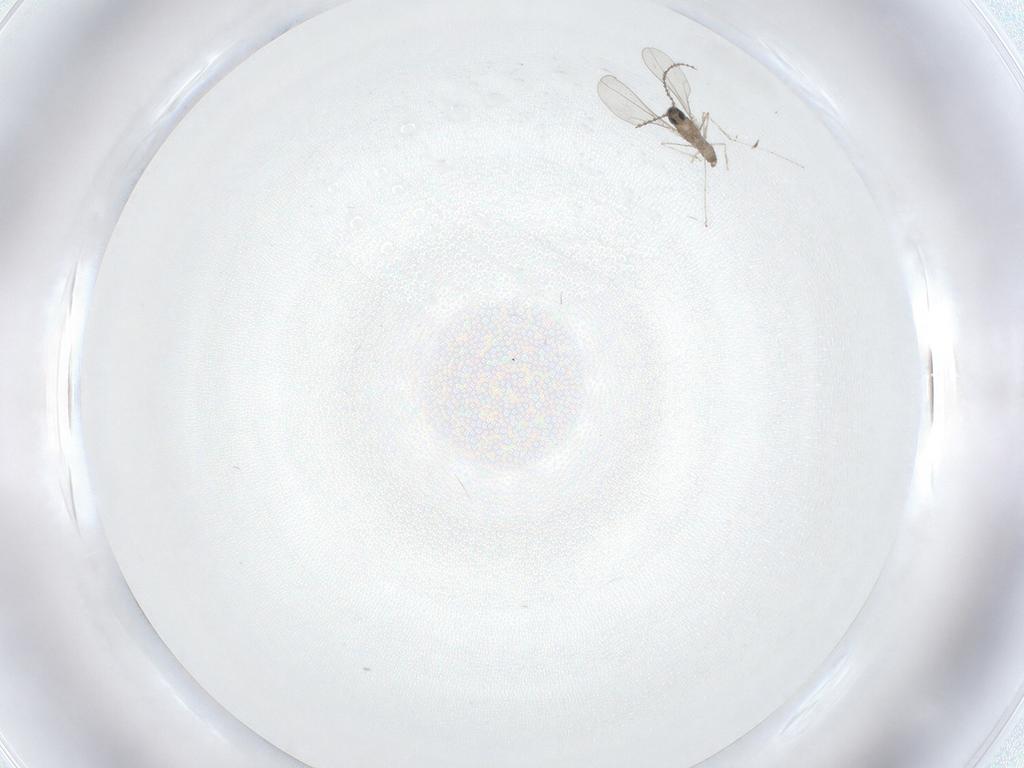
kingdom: Animalia
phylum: Arthropoda
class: Insecta
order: Diptera
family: Cecidomyiidae
